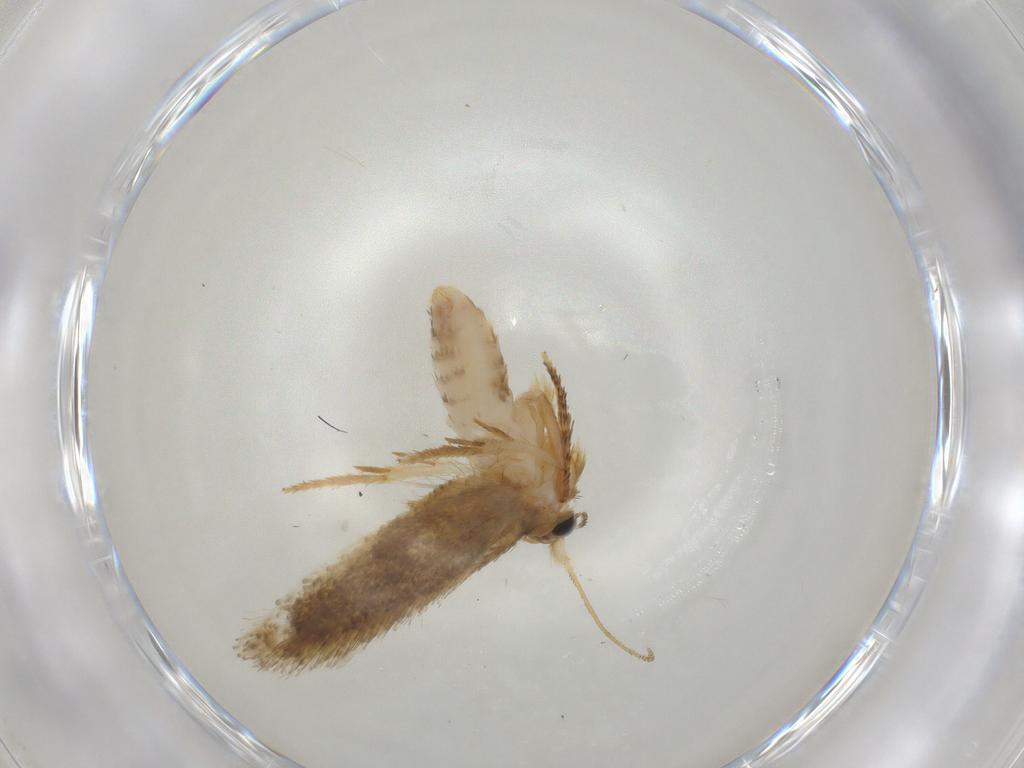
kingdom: Animalia
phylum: Arthropoda
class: Insecta
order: Lepidoptera
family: Nepticulidae
